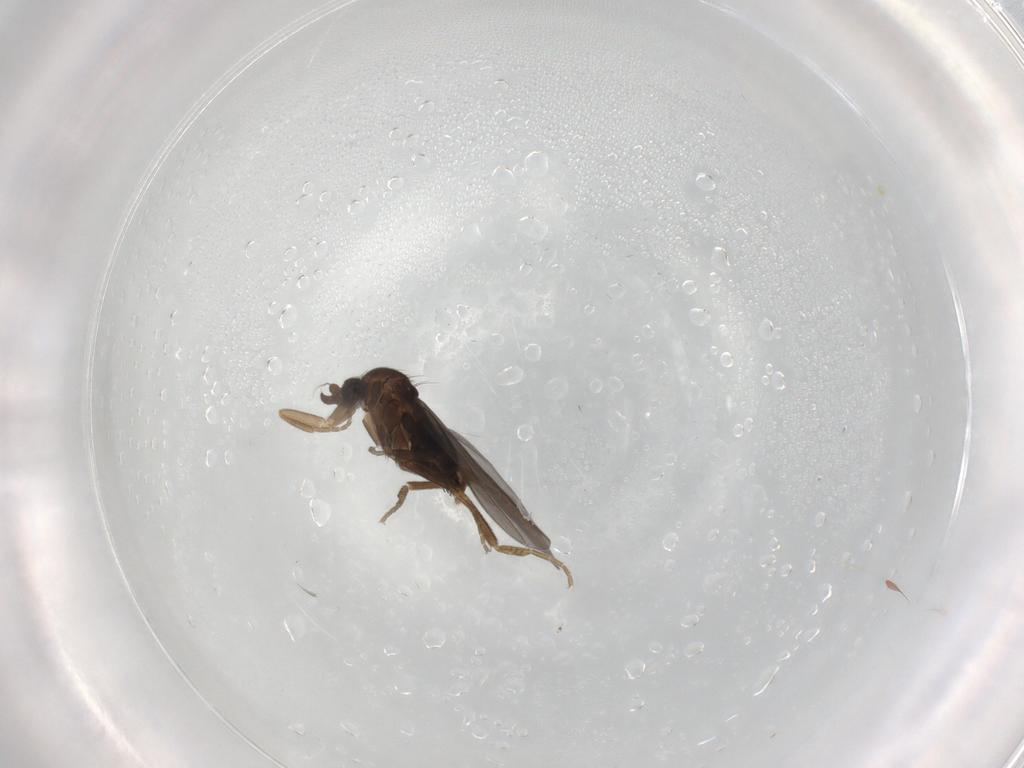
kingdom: Animalia
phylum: Arthropoda
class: Insecta
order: Diptera
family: Phoridae
